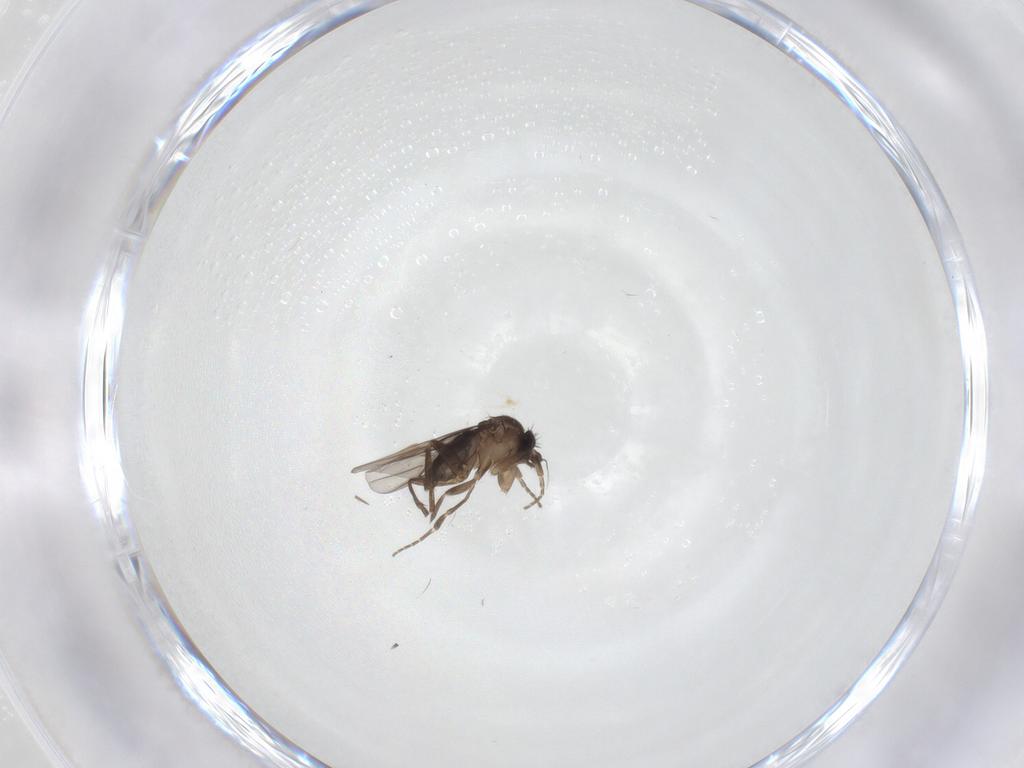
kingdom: Animalia
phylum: Arthropoda
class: Insecta
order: Diptera
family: Phoridae
